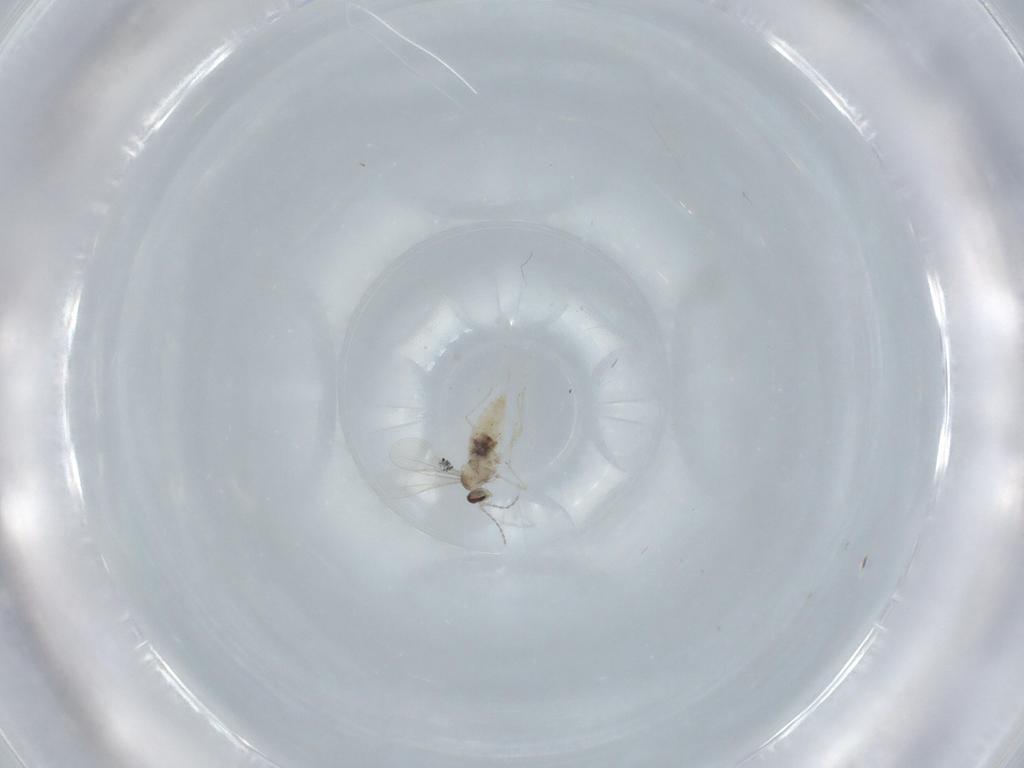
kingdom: Animalia
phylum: Arthropoda
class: Insecta
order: Diptera
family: Cecidomyiidae
